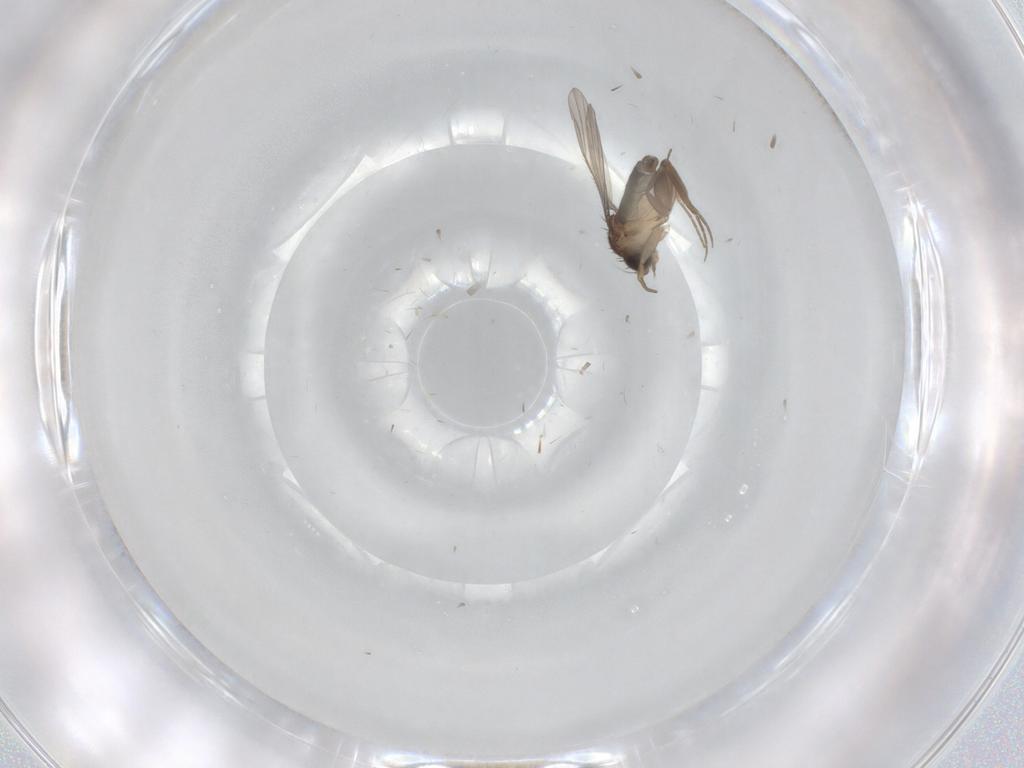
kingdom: Animalia
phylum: Arthropoda
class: Insecta
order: Diptera
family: Phoridae
